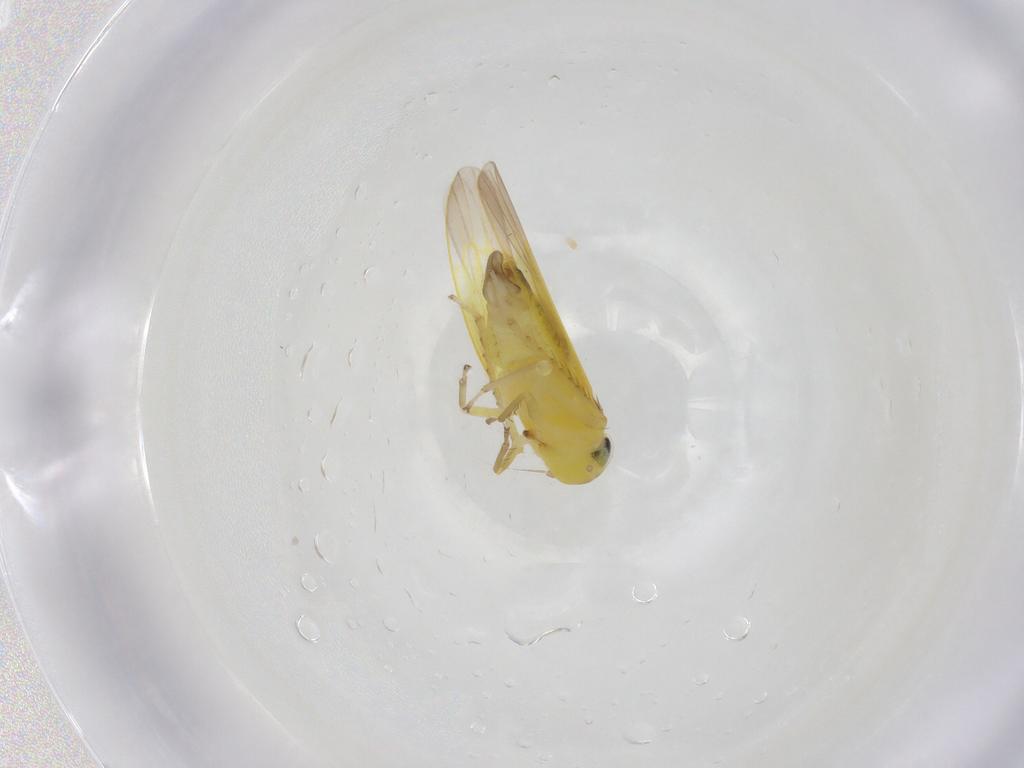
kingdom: Animalia
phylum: Arthropoda
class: Insecta
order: Hemiptera
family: Cicadellidae
